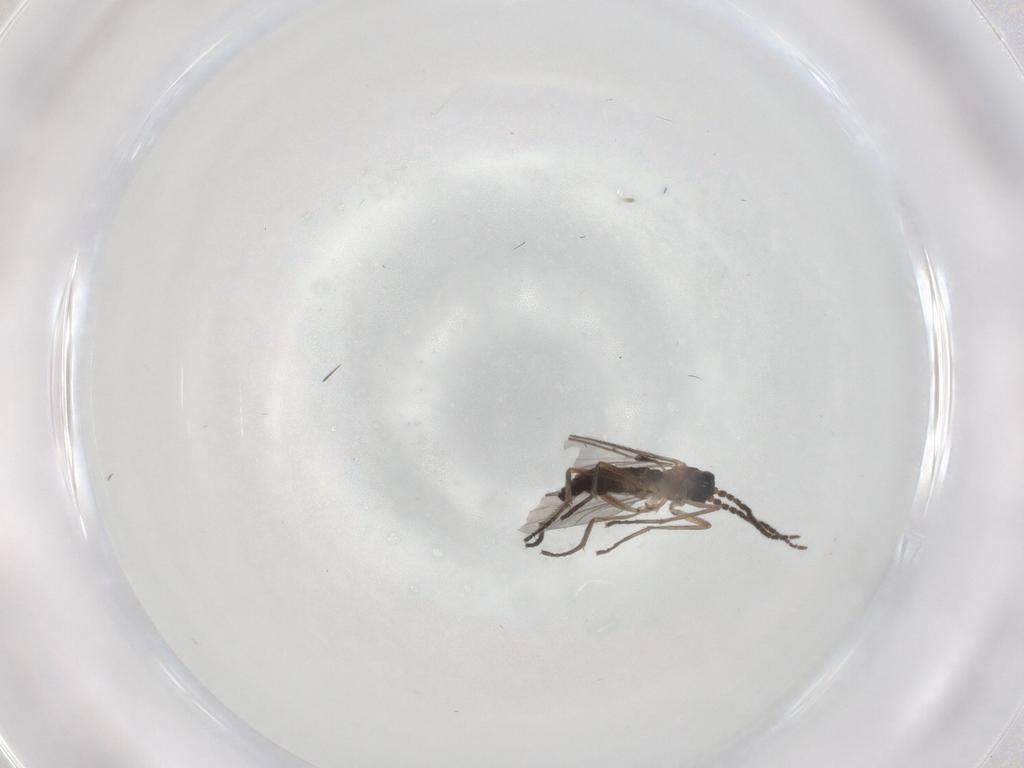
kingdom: Animalia
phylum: Arthropoda
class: Insecta
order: Diptera
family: Sciaridae
